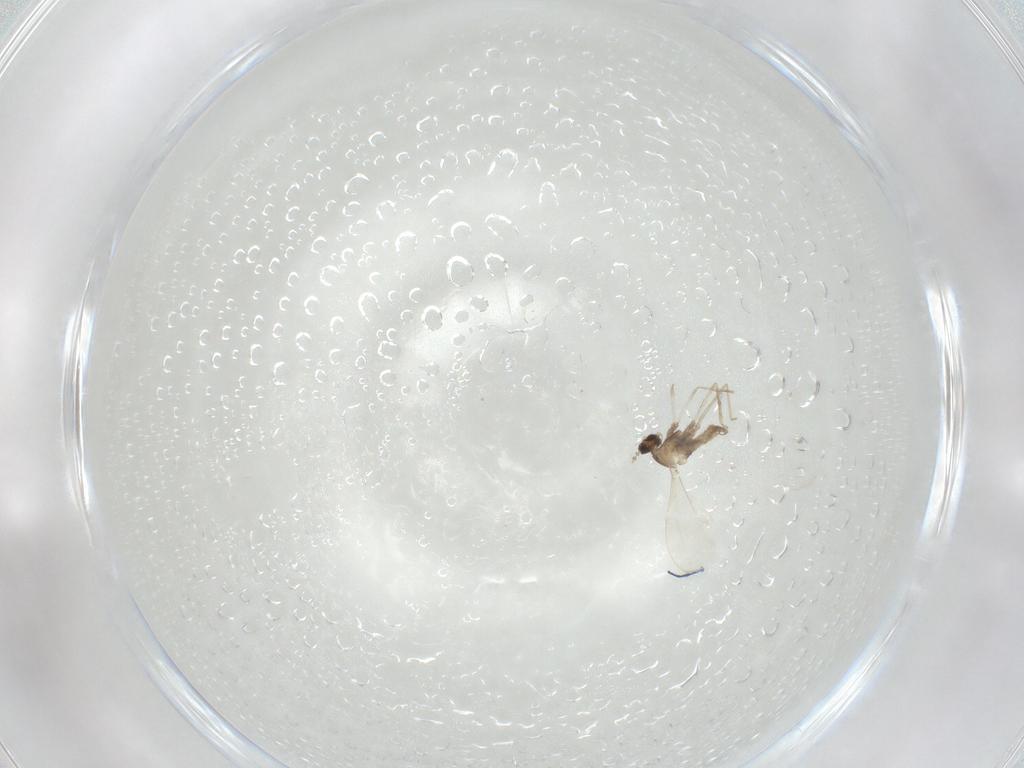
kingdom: Animalia
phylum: Arthropoda
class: Insecta
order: Diptera
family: Cecidomyiidae
